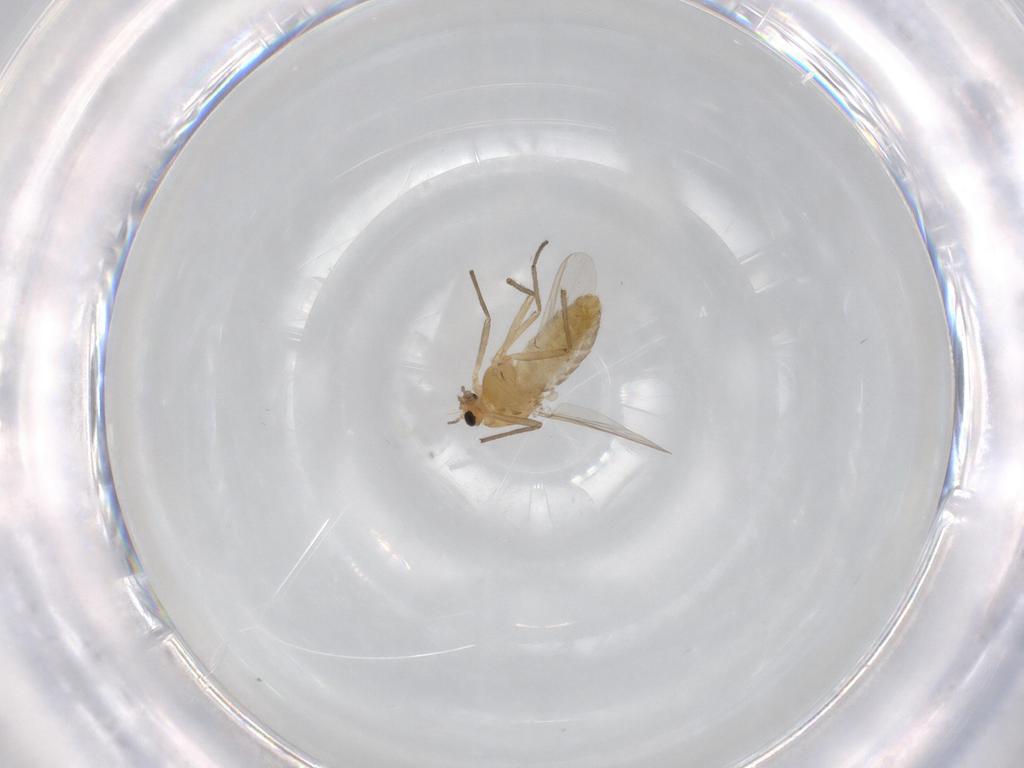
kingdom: Animalia
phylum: Arthropoda
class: Insecta
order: Diptera
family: Chironomidae
